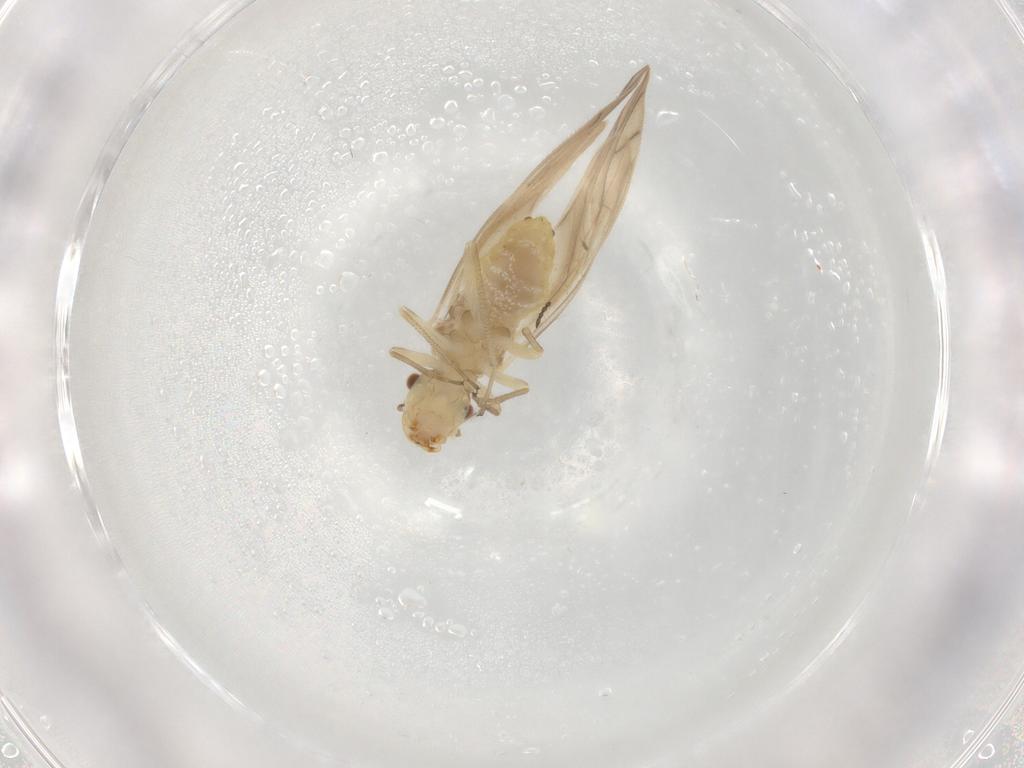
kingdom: Animalia
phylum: Arthropoda
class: Insecta
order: Psocodea
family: Caeciliusidae
